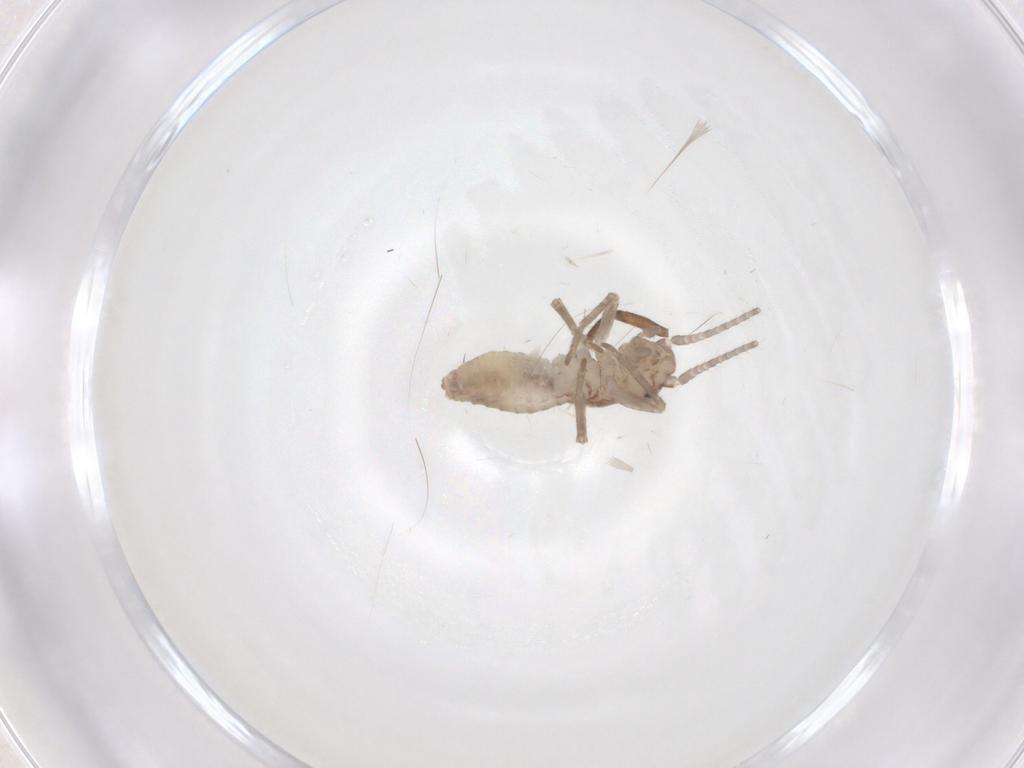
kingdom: Animalia
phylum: Arthropoda
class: Insecta
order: Orthoptera
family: Mogoplistidae
